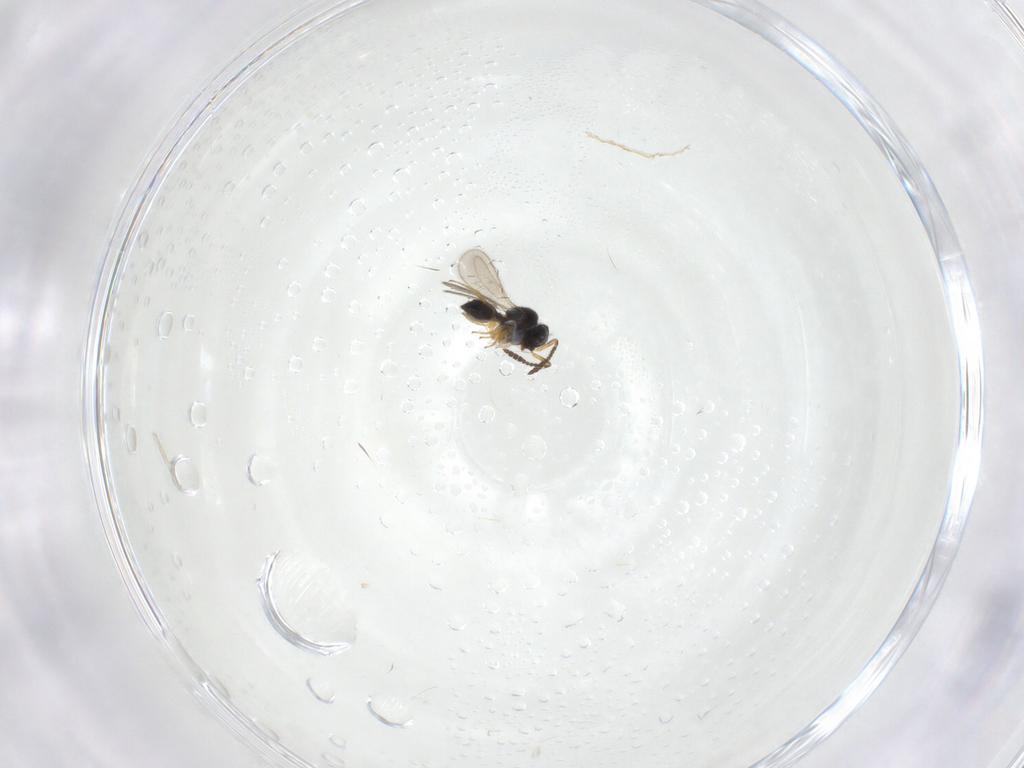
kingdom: Animalia
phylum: Arthropoda
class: Insecta
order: Hymenoptera
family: Scelionidae
